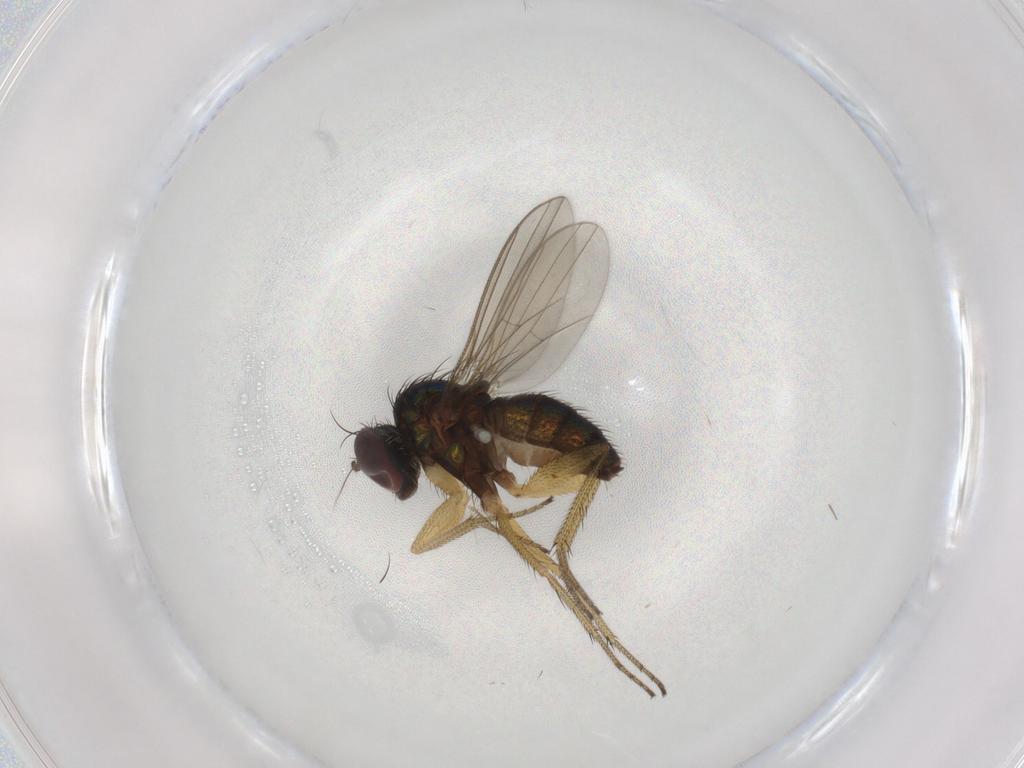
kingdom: Animalia
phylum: Arthropoda
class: Insecta
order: Diptera
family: Dolichopodidae
